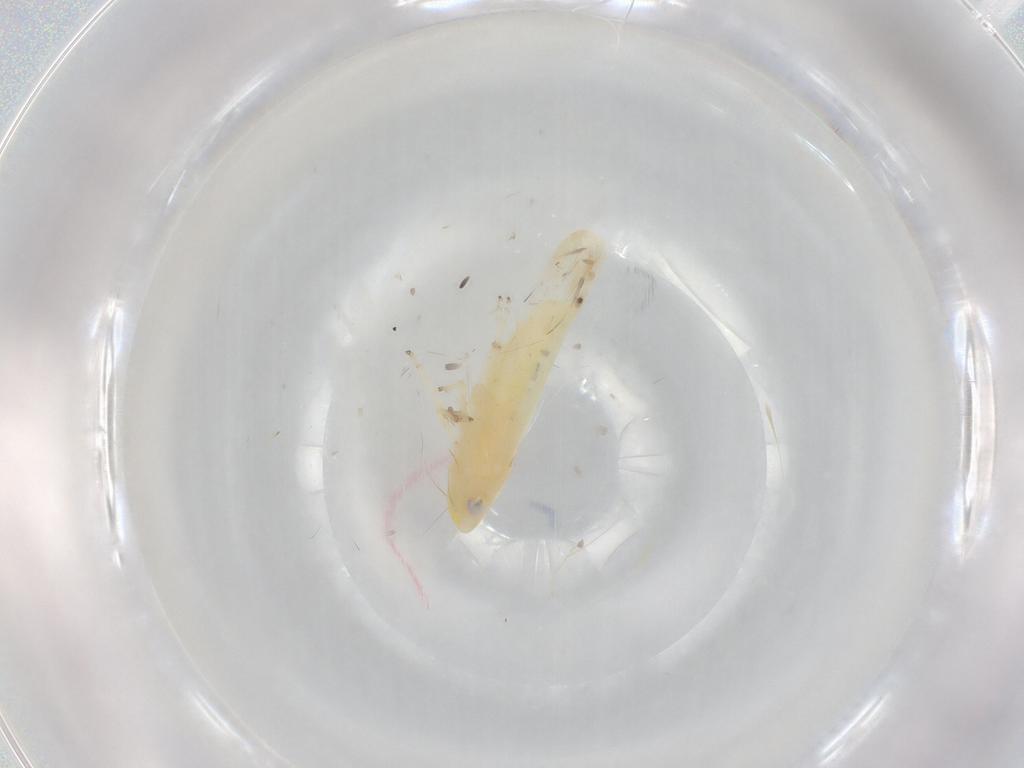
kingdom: Animalia
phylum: Arthropoda
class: Insecta
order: Hemiptera
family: Cicadellidae
